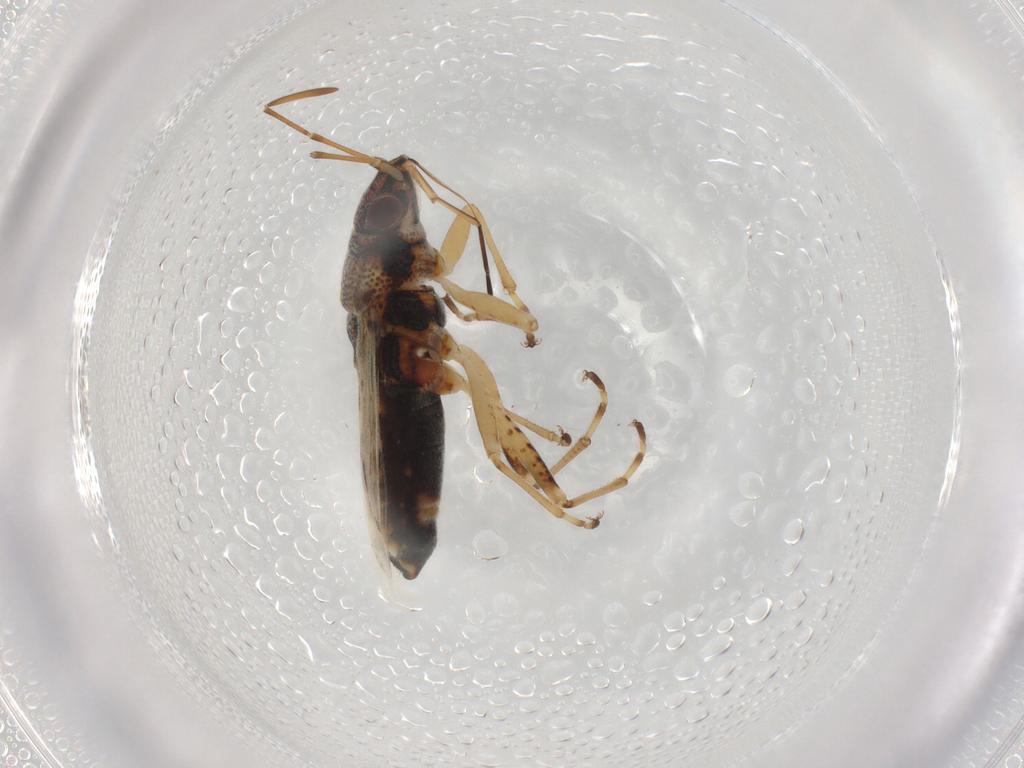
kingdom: Animalia
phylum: Arthropoda
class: Insecta
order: Hemiptera
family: Lygaeidae
